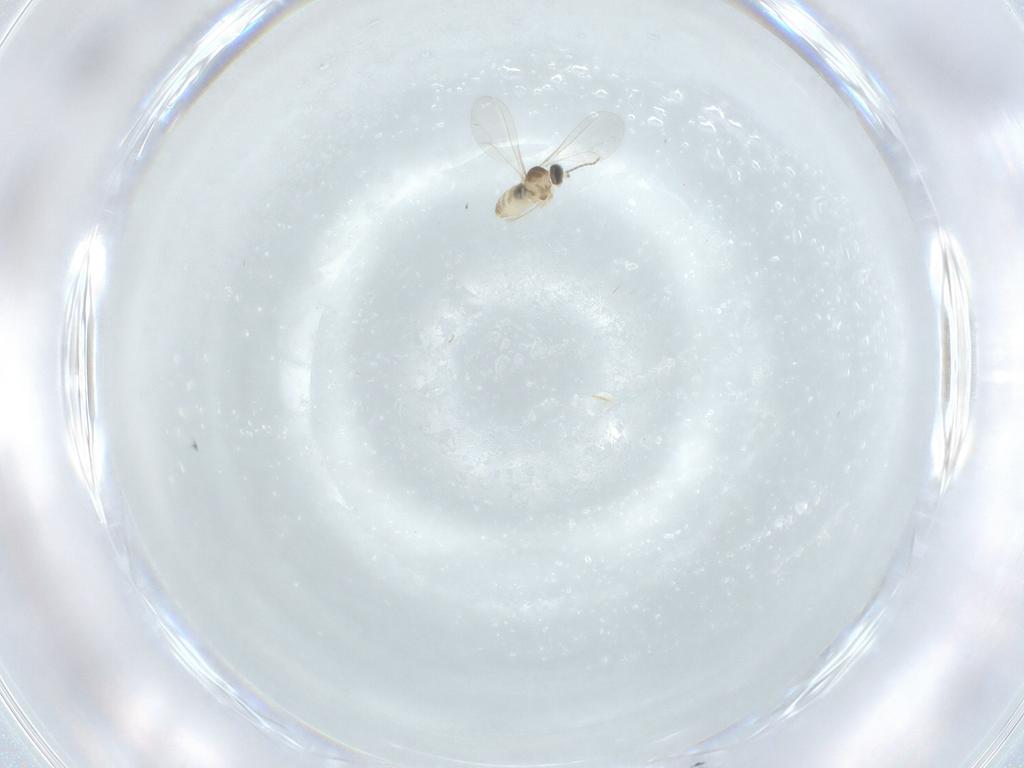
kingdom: Animalia
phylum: Arthropoda
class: Insecta
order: Diptera
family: Cecidomyiidae
